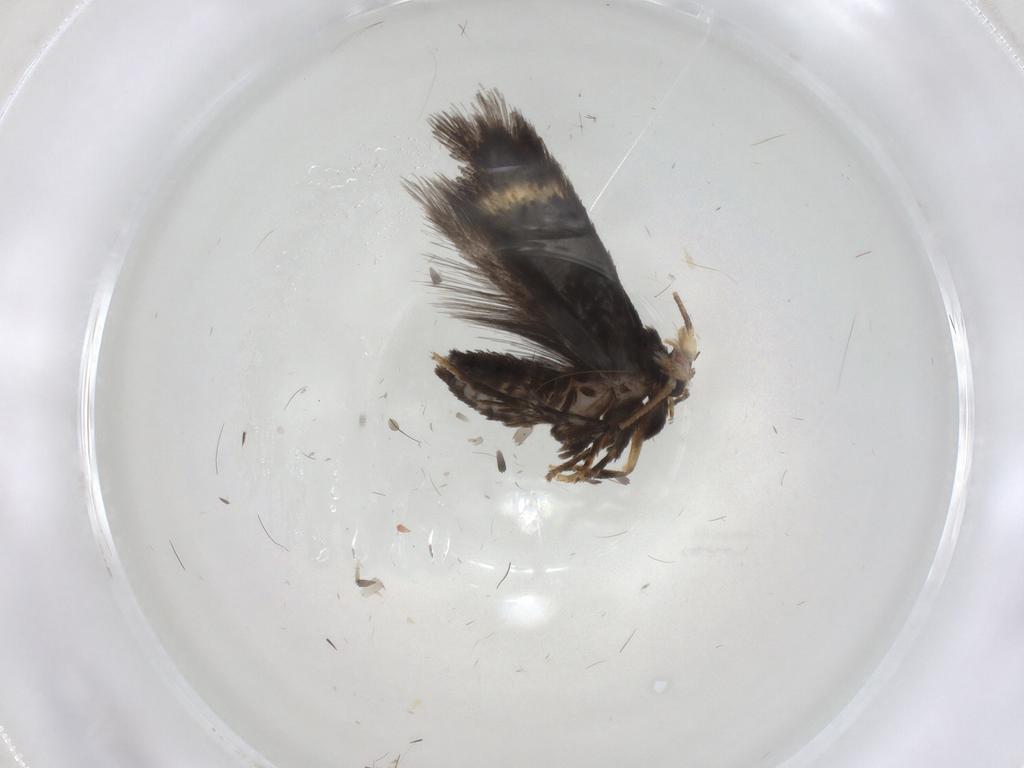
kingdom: Animalia
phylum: Arthropoda
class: Insecta
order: Lepidoptera
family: Nepticulidae
